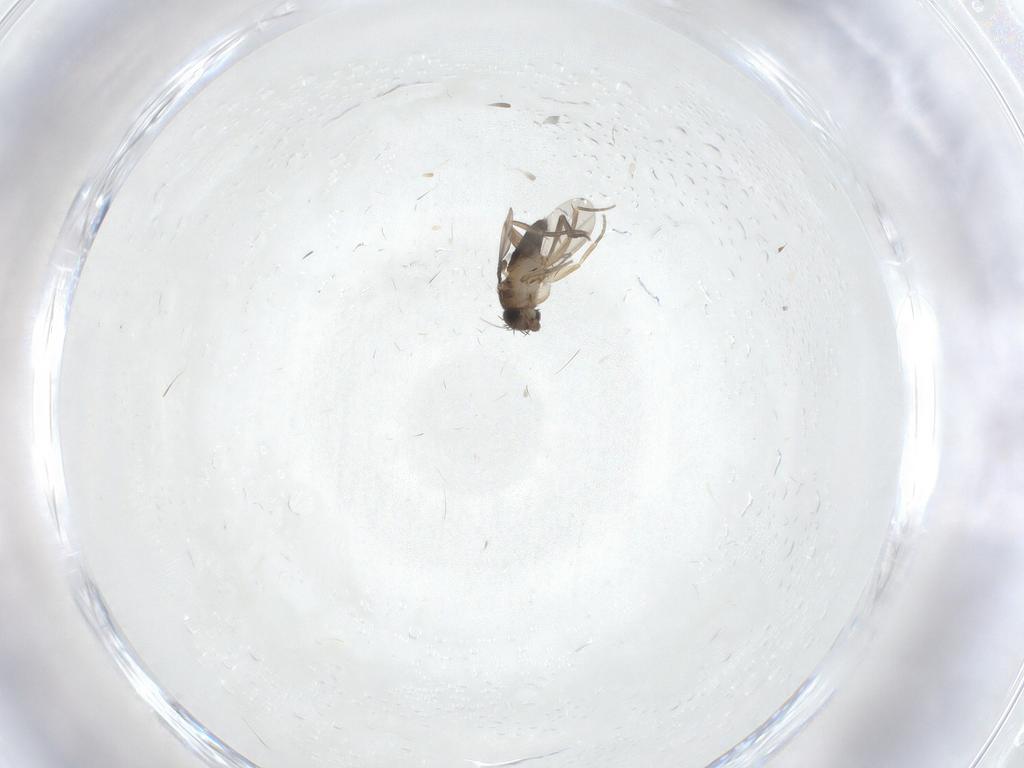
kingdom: Animalia
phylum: Arthropoda
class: Insecta
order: Diptera
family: Phoridae
